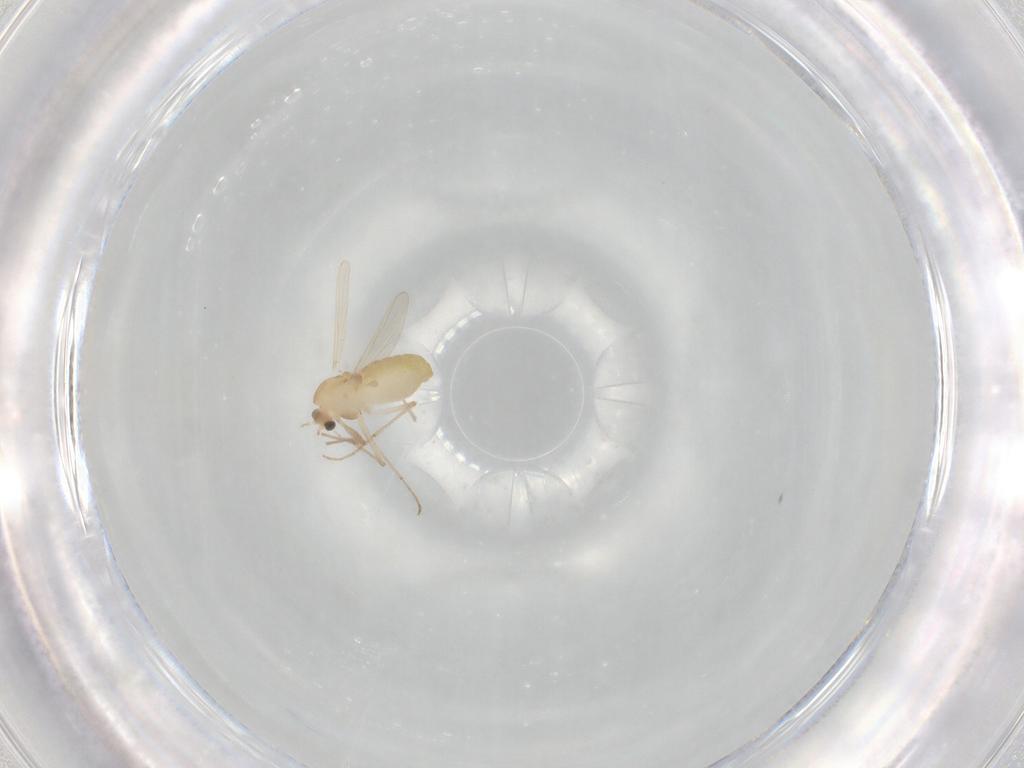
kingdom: Animalia
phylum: Arthropoda
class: Insecta
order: Diptera
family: Chironomidae
